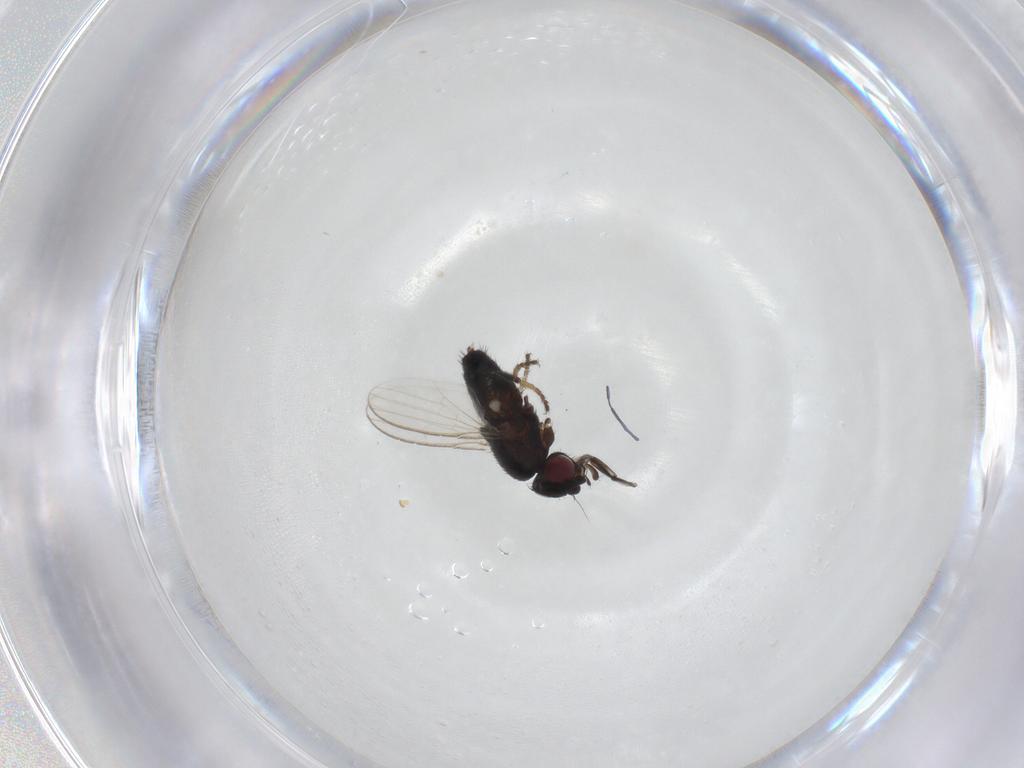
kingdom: Animalia
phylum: Arthropoda
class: Insecta
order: Diptera
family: Milichiidae
